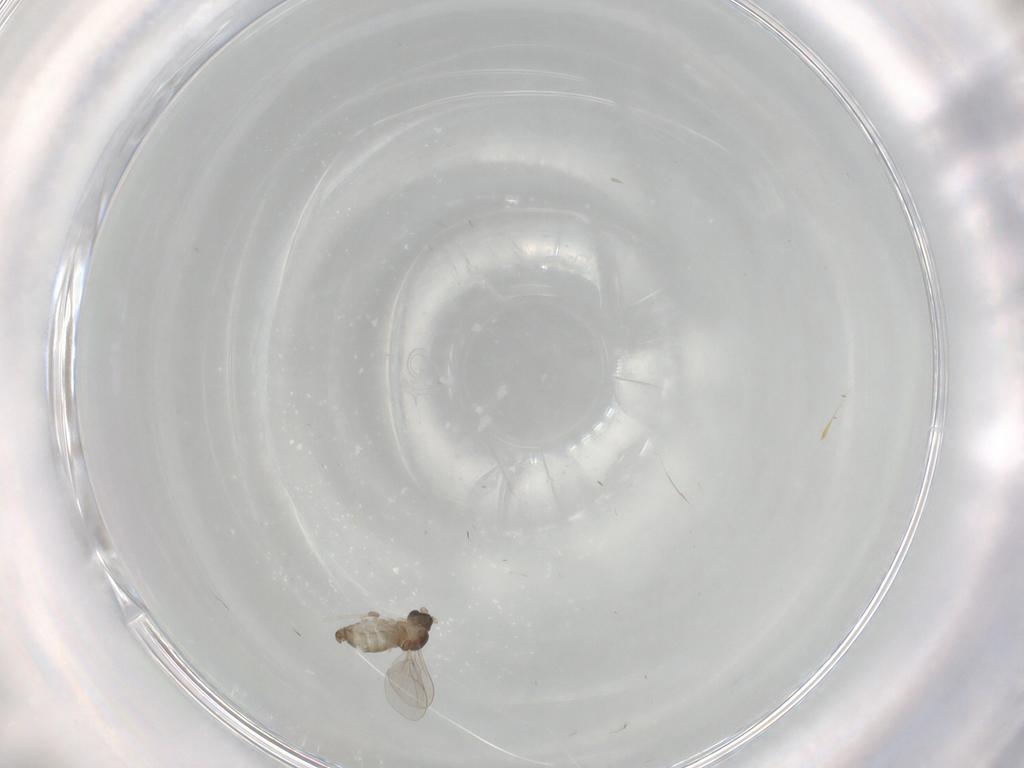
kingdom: Animalia
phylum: Arthropoda
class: Insecta
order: Diptera
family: Cecidomyiidae
